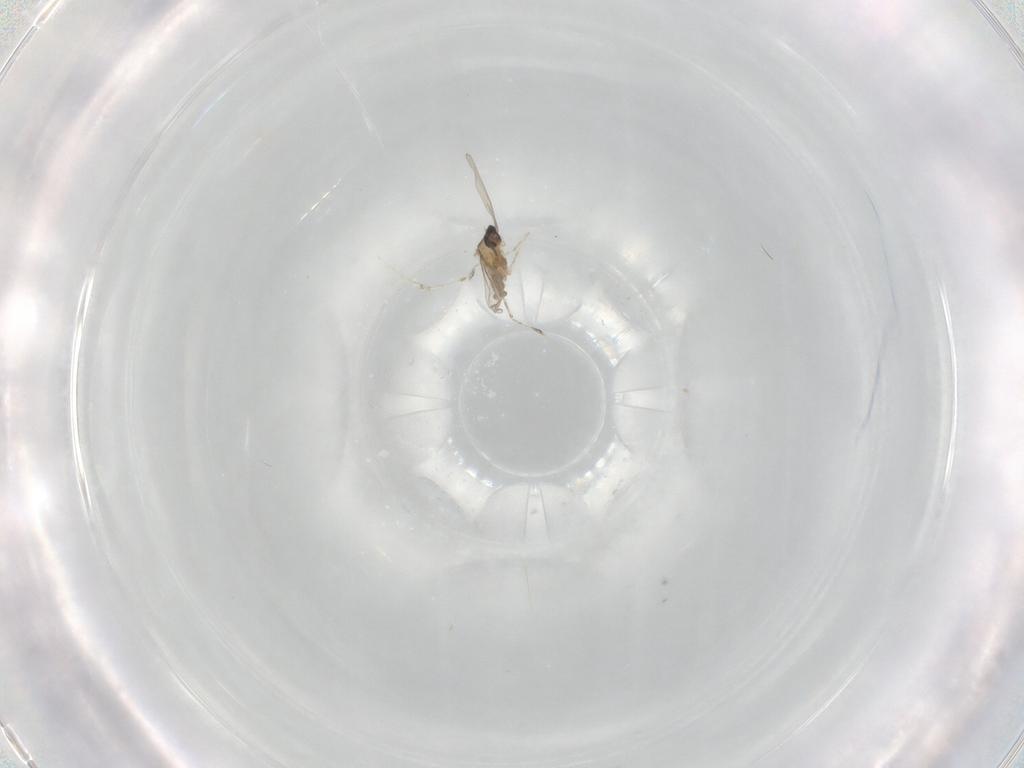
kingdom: Animalia
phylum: Arthropoda
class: Insecta
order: Diptera
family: Cecidomyiidae
